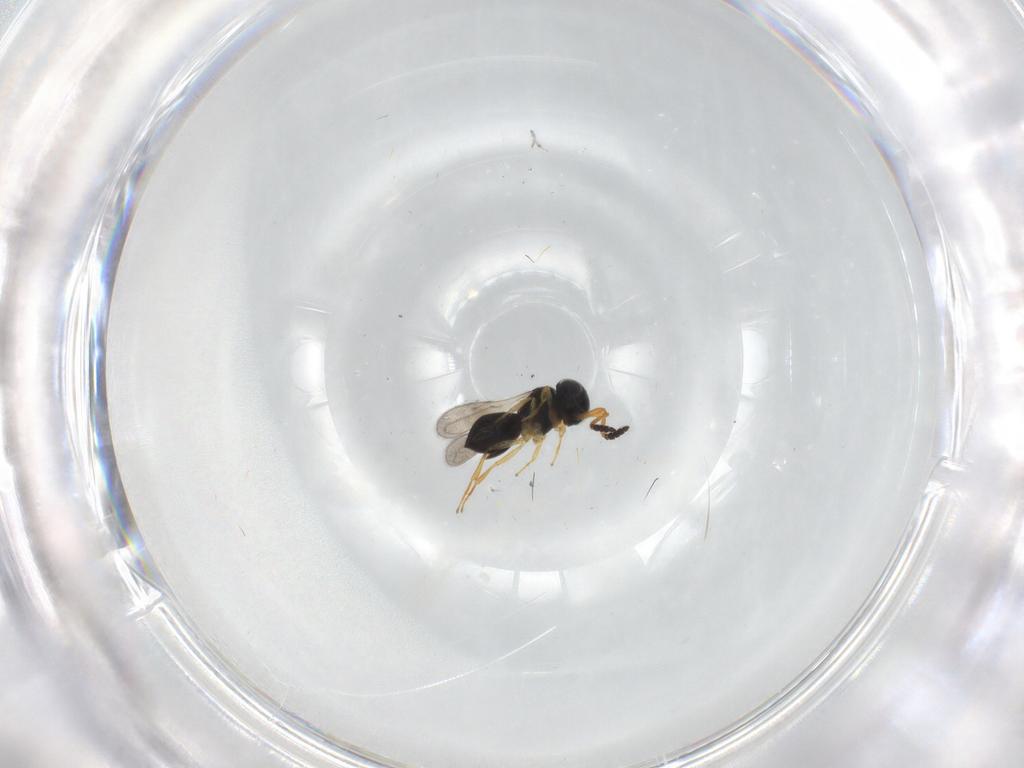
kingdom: Animalia
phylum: Arthropoda
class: Insecta
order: Hymenoptera
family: Scelionidae
